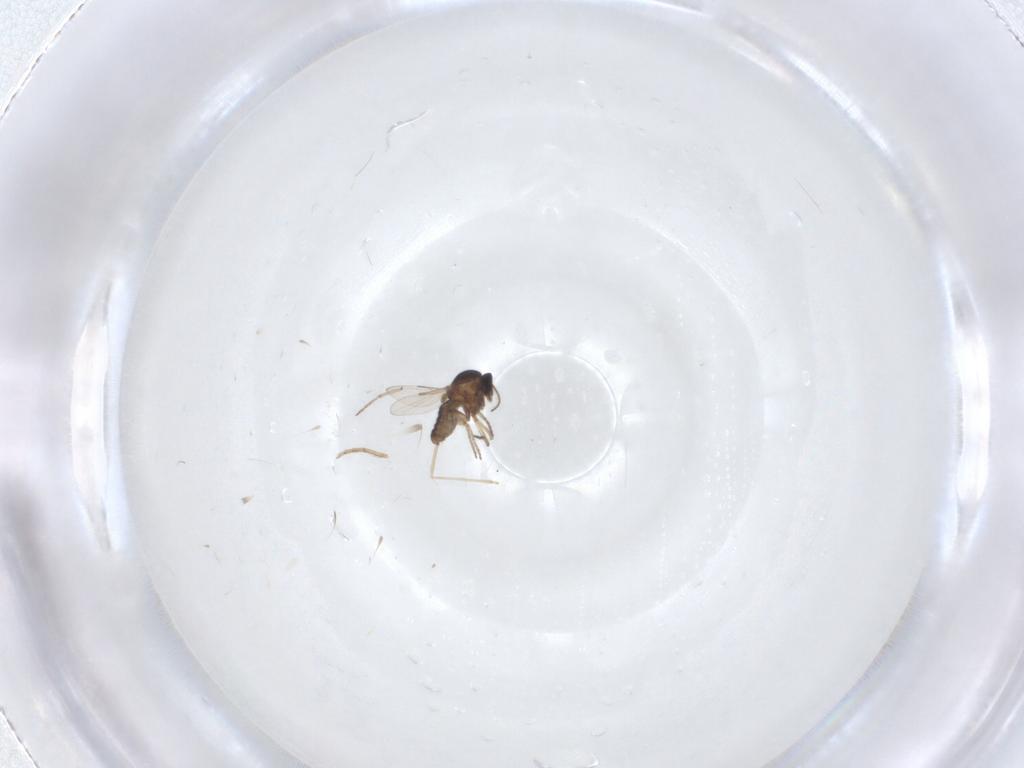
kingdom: Animalia
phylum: Arthropoda
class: Insecta
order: Diptera
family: Ceratopogonidae
